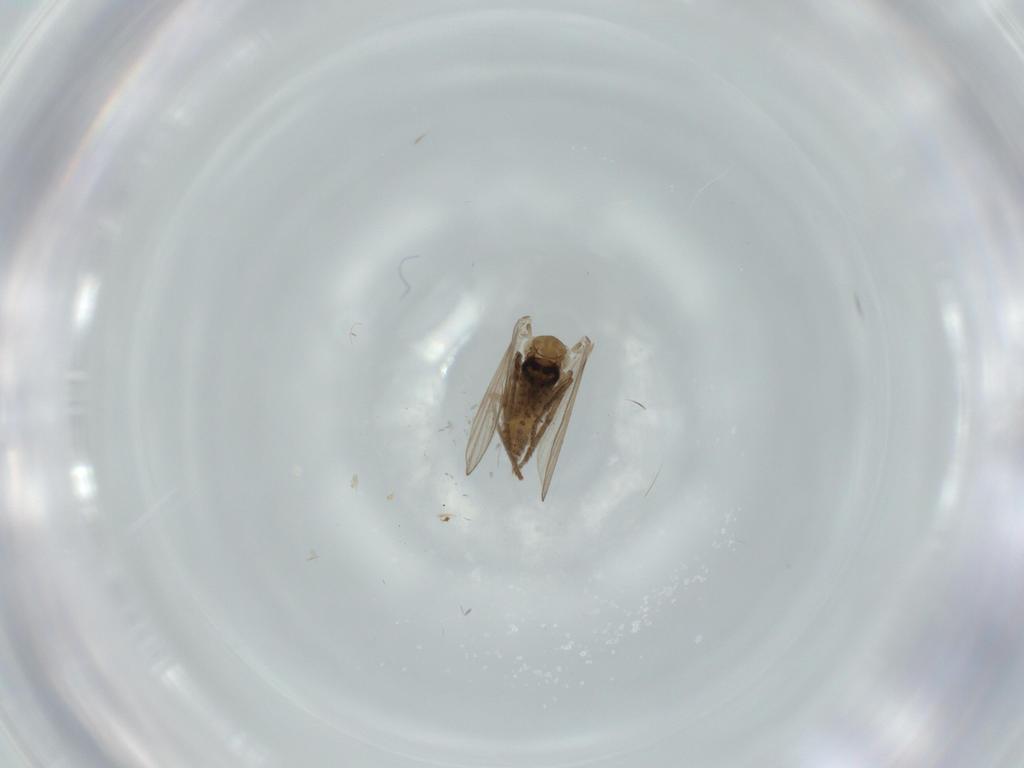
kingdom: Animalia
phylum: Arthropoda
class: Insecta
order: Diptera
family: Psychodidae
